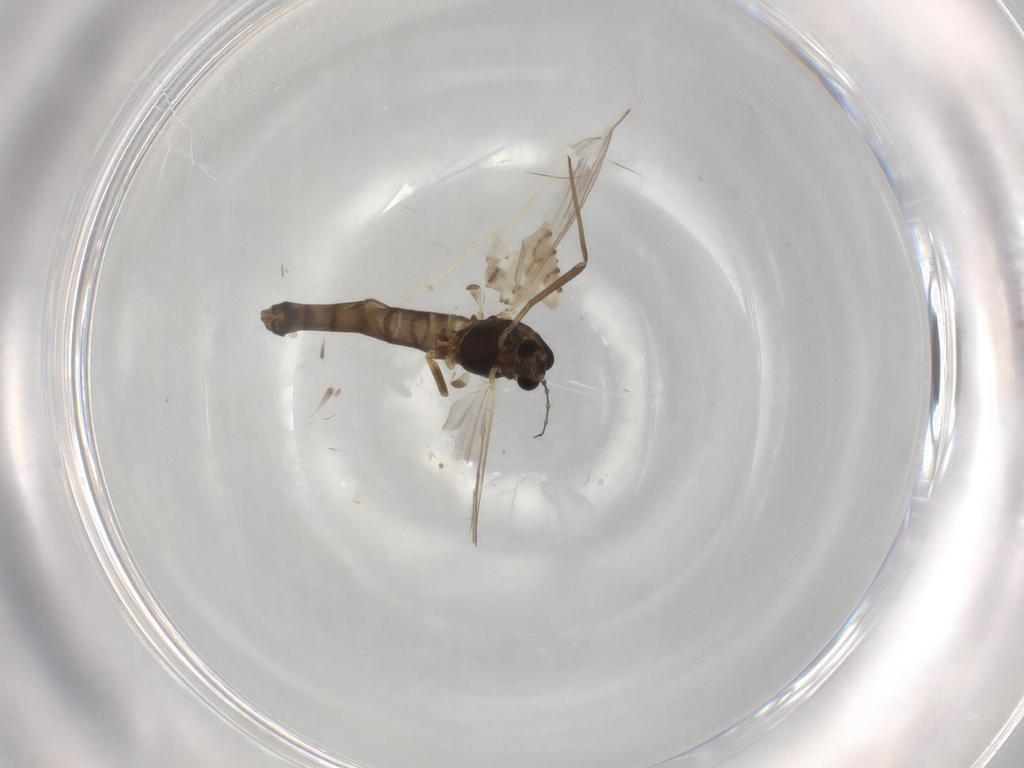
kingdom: Animalia
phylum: Arthropoda
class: Insecta
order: Diptera
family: Chironomidae
